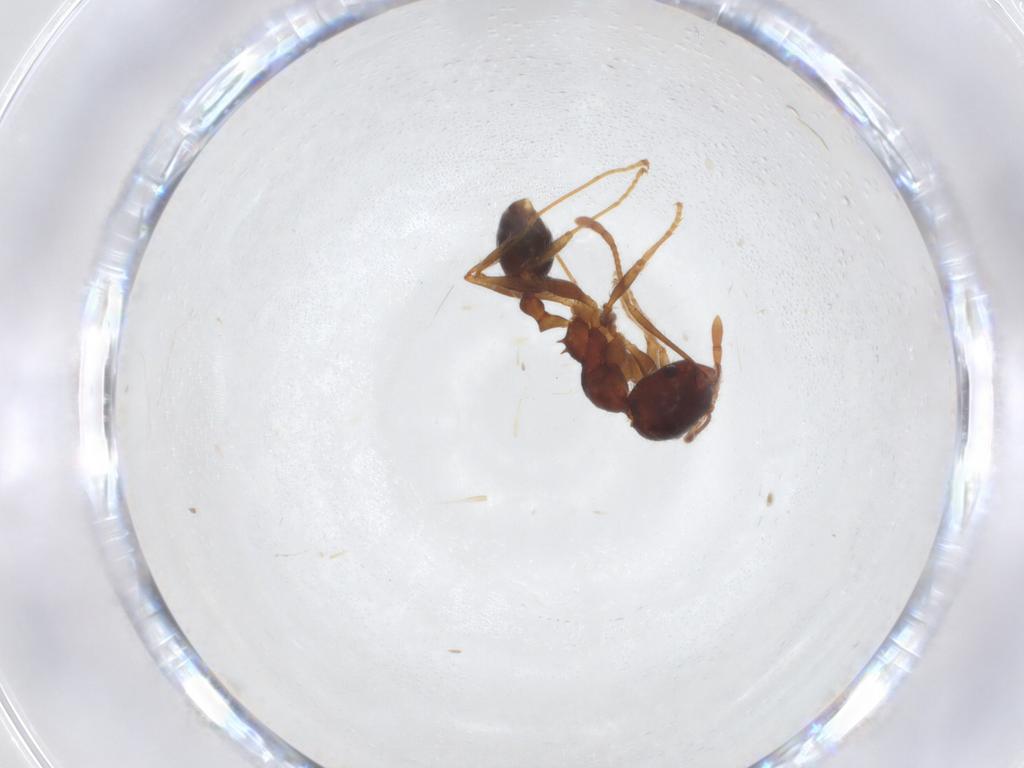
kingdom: Animalia
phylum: Arthropoda
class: Insecta
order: Hymenoptera
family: Formicidae
